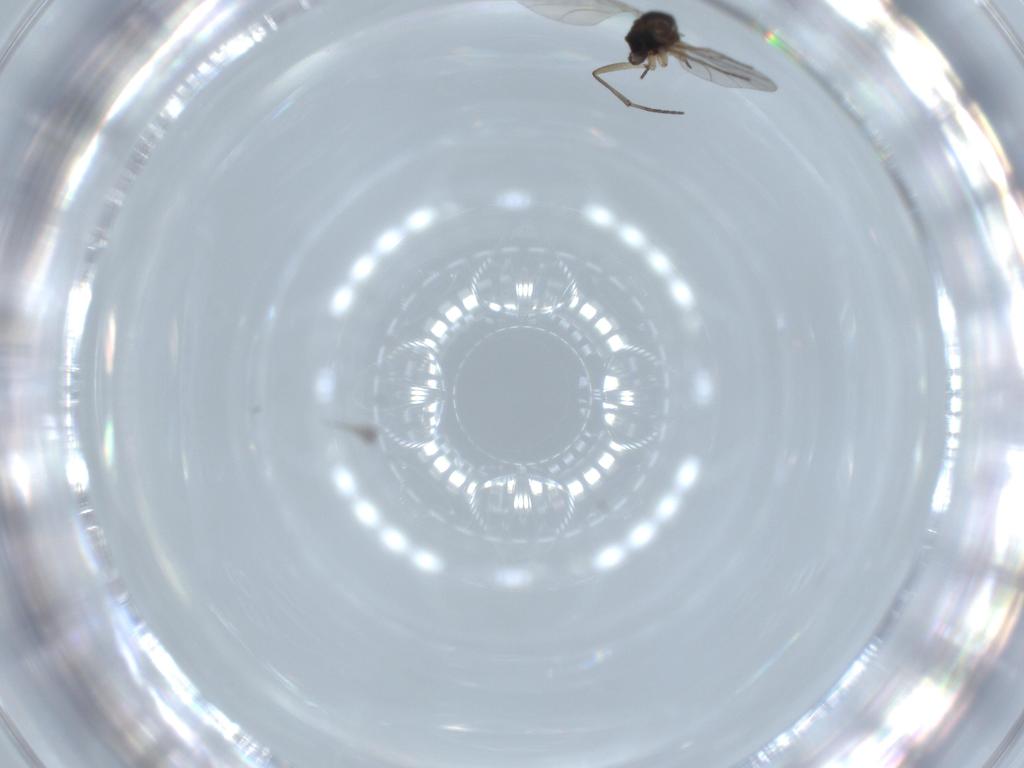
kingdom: Animalia
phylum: Arthropoda
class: Insecta
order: Diptera
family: Psychodidae
